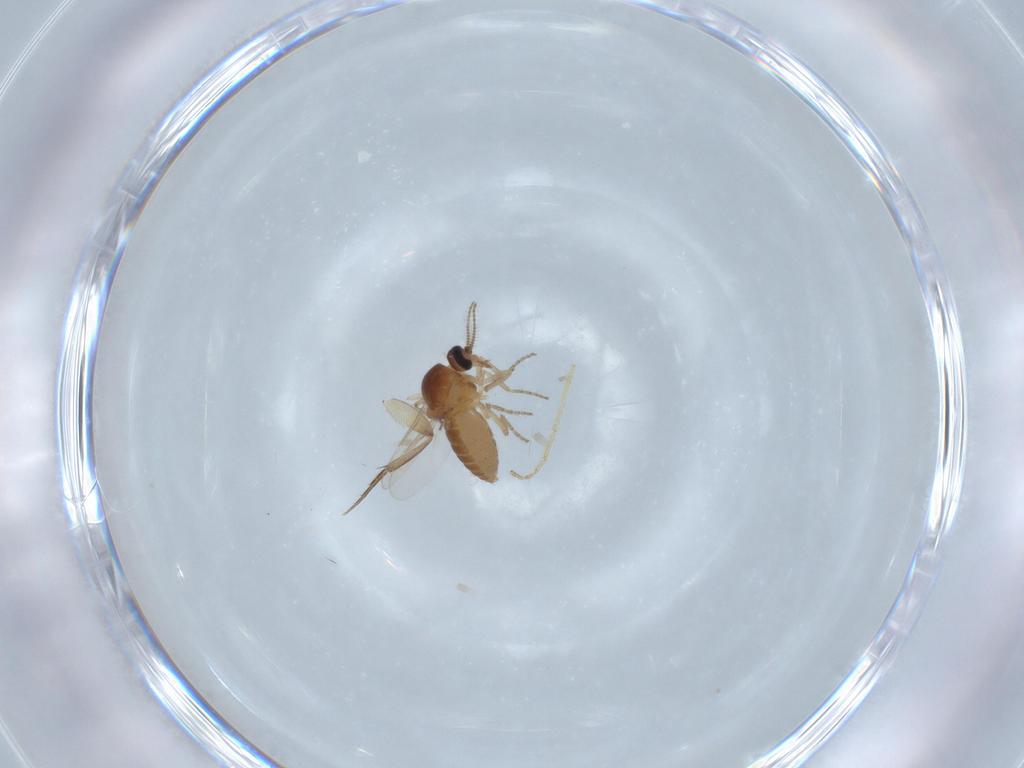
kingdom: Animalia
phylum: Arthropoda
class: Insecta
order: Diptera
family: Ceratopogonidae
